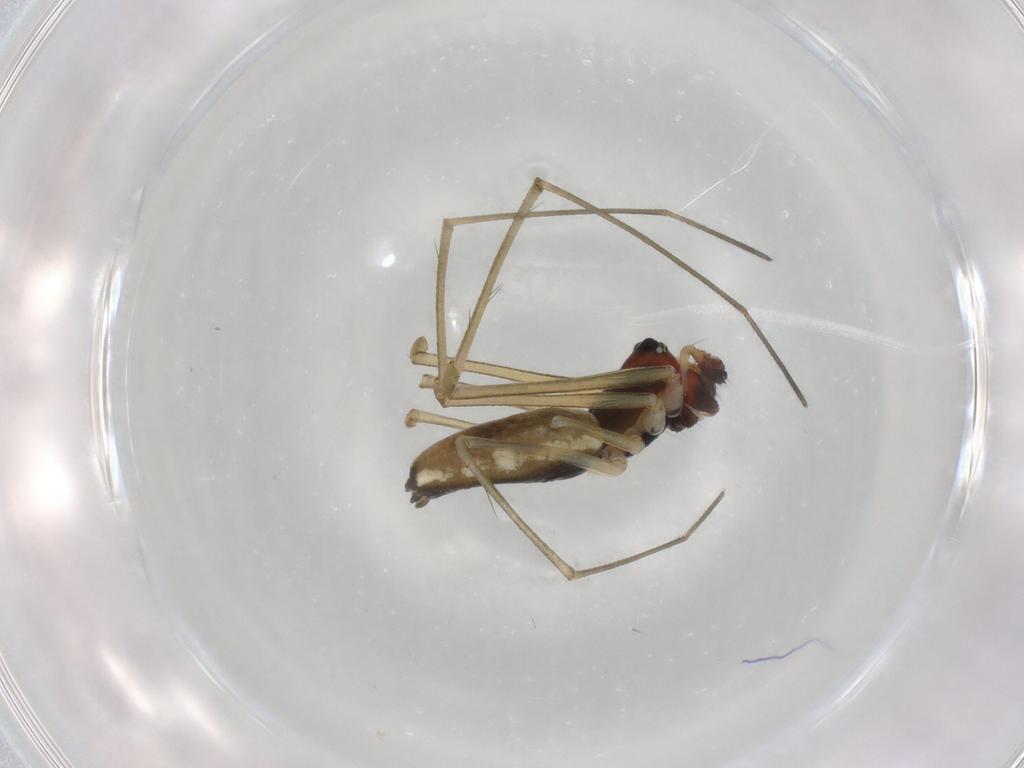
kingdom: Animalia
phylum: Arthropoda
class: Arachnida
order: Araneae
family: Linyphiidae
